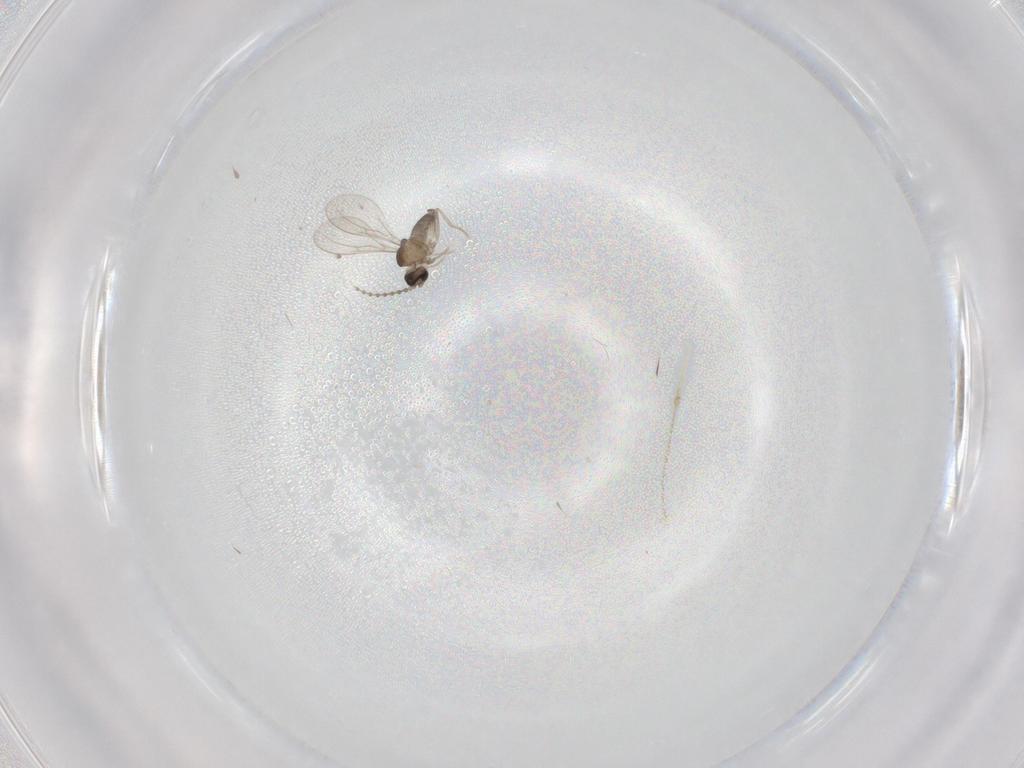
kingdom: Animalia
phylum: Arthropoda
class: Insecta
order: Diptera
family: Cecidomyiidae
